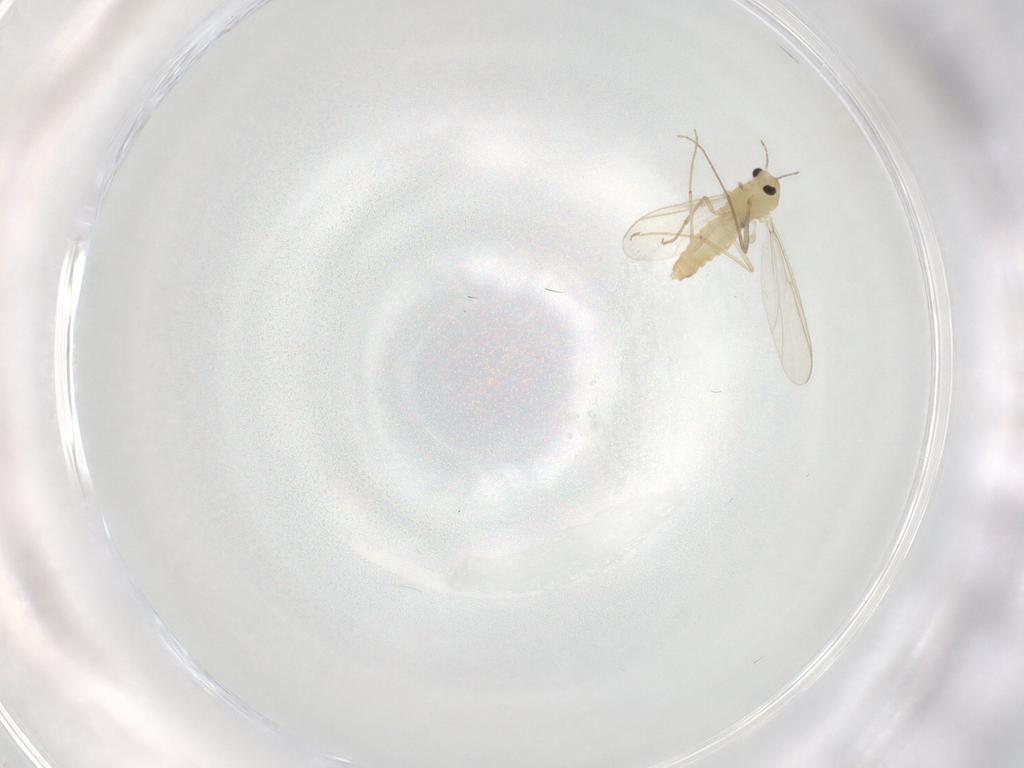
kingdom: Animalia
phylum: Arthropoda
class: Insecta
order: Diptera
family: Chironomidae
